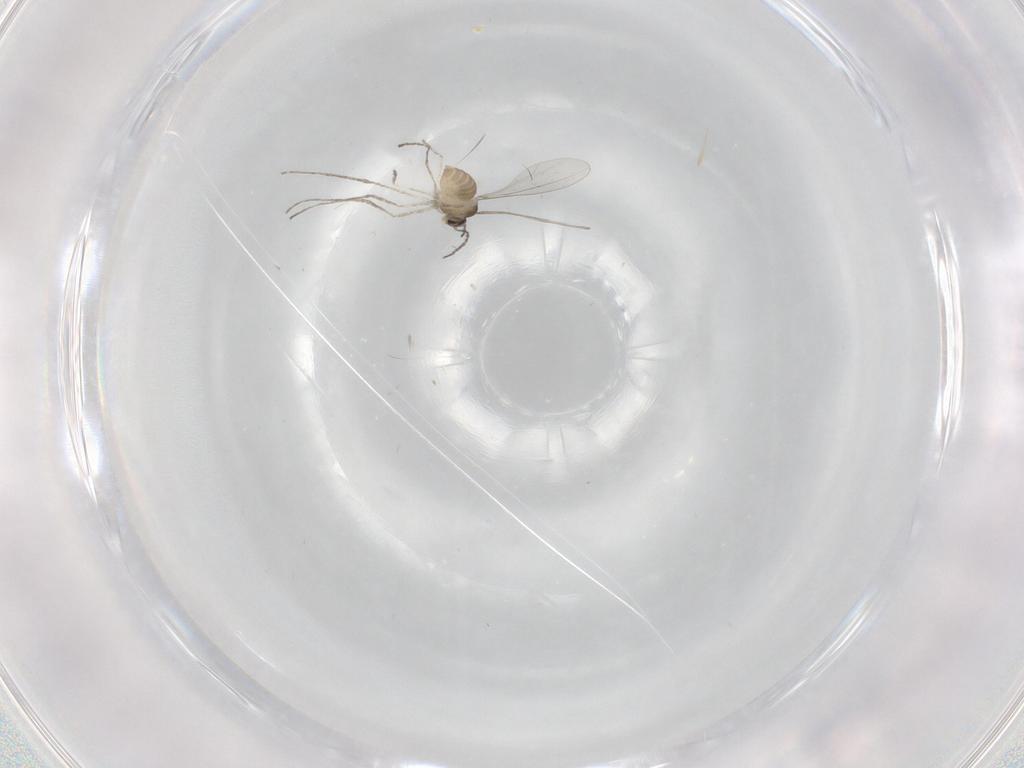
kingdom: Animalia
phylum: Arthropoda
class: Insecta
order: Diptera
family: Cecidomyiidae
